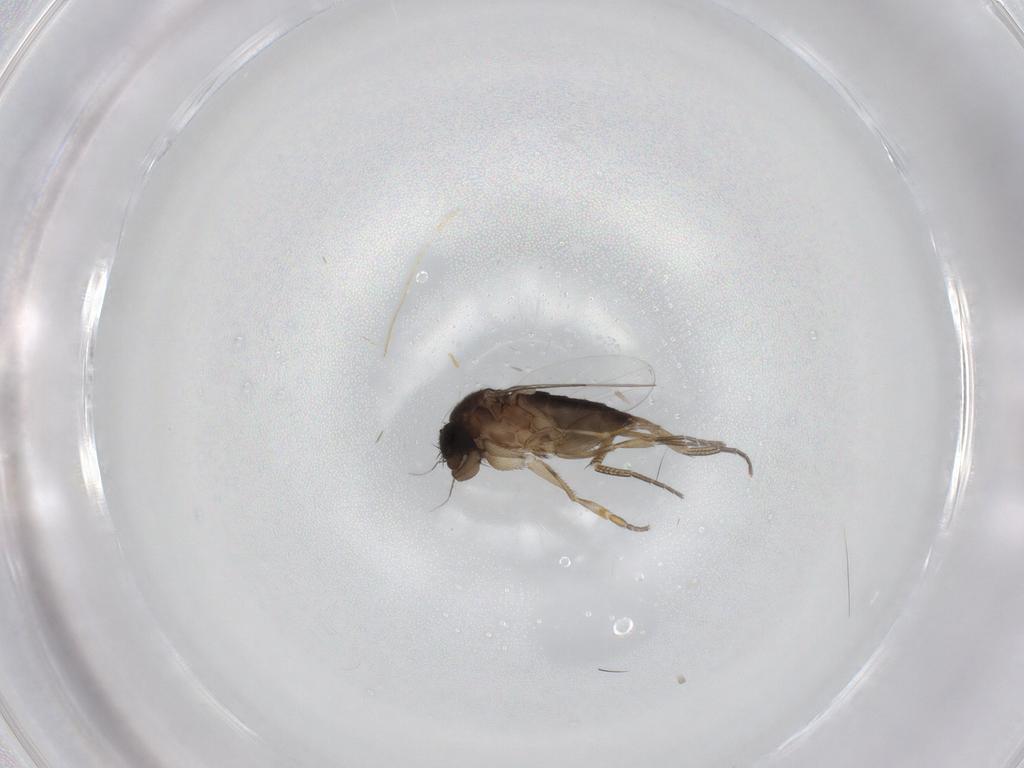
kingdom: Animalia
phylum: Arthropoda
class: Insecta
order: Diptera
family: Phoridae
